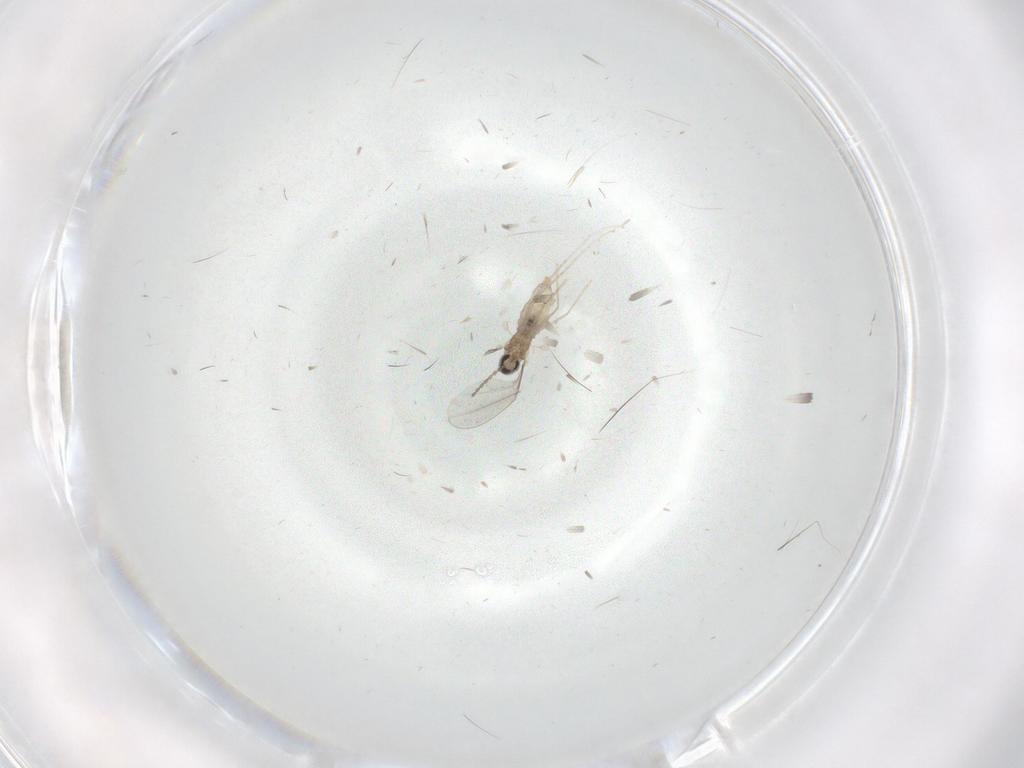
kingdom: Animalia
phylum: Arthropoda
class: Insecta
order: Diptera
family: Cecidomyiidae
